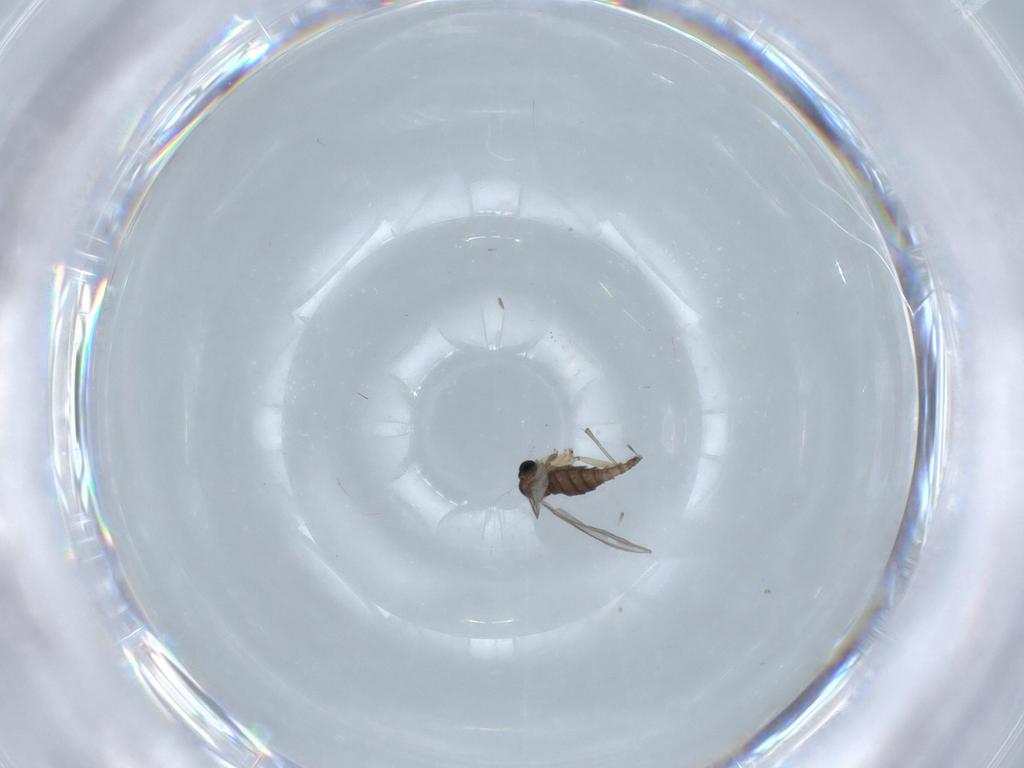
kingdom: Animalia
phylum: Arthropoda
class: Insecta
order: Diptera
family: Sciaridae
